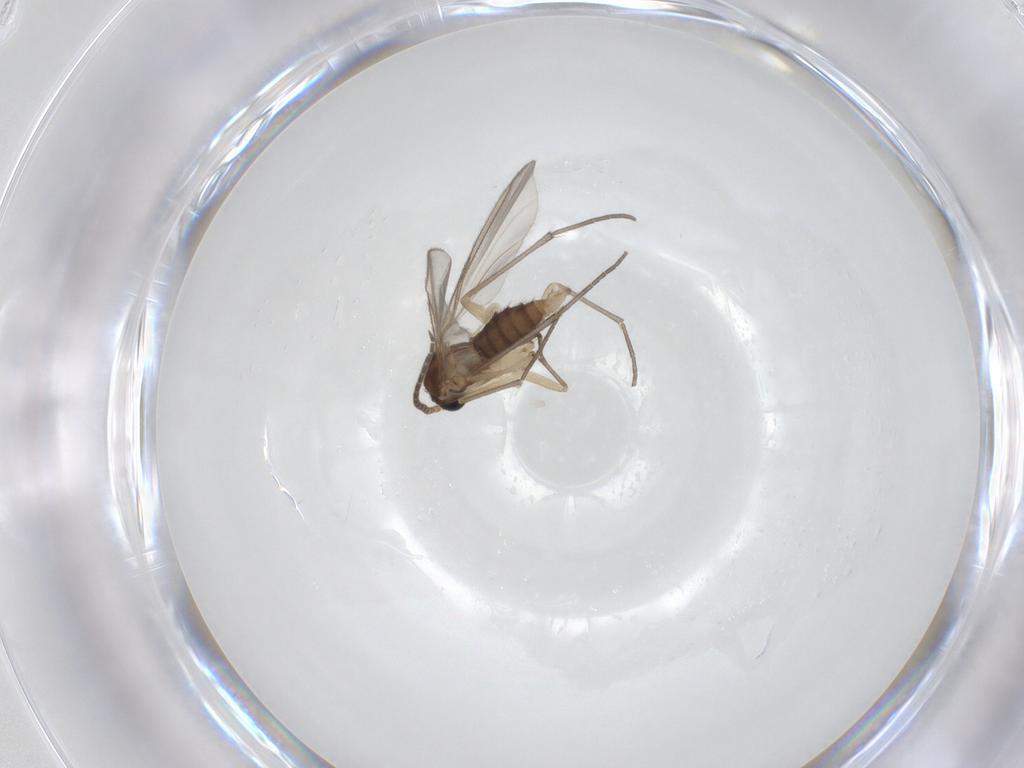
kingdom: Animalia
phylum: Arthropoda
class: Insecta
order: Diptera
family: Sciaridae
